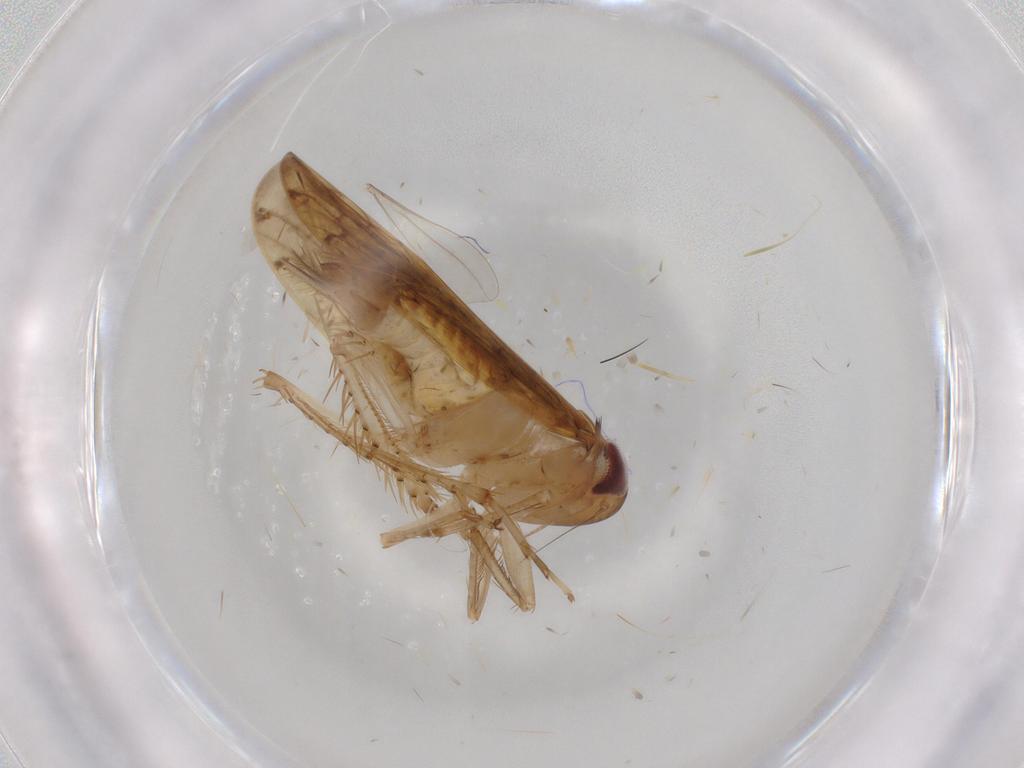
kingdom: Animalia
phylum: Arthropoda
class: Insecta
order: Hemiptera
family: Cicadellidae
